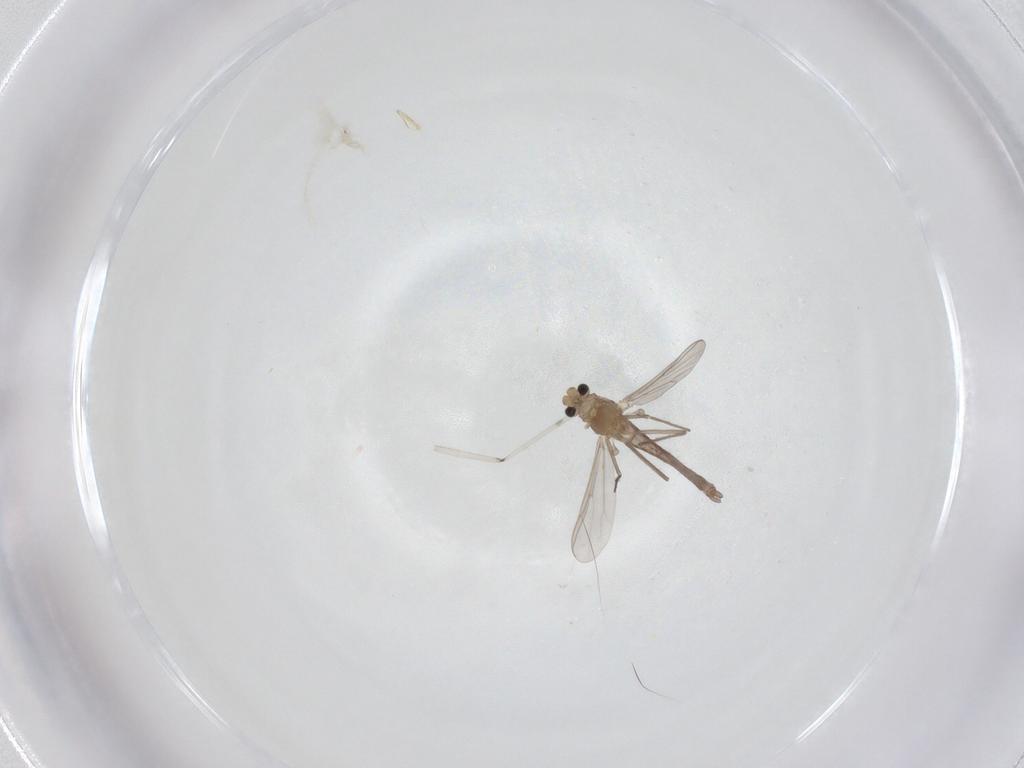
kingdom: Animalia
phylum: Arthropoda
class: Insecta
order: Diptera
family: Chironomidae
